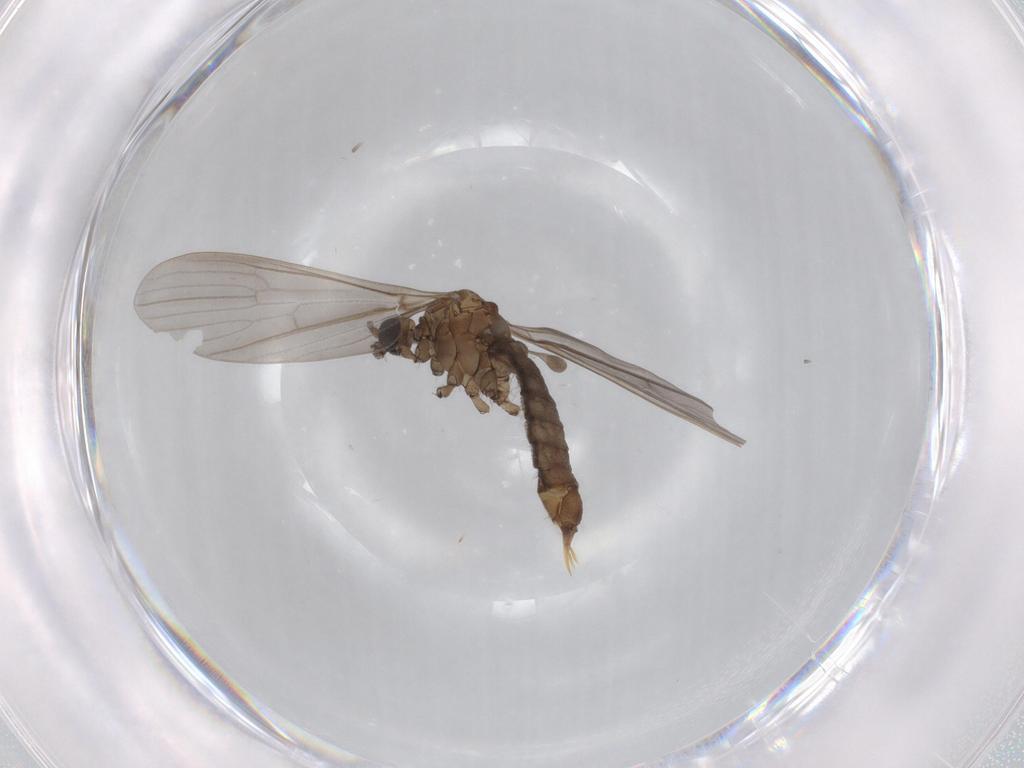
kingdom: Animalia
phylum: Arthropoda
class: Insecta
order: Diptera
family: Limoniidae
